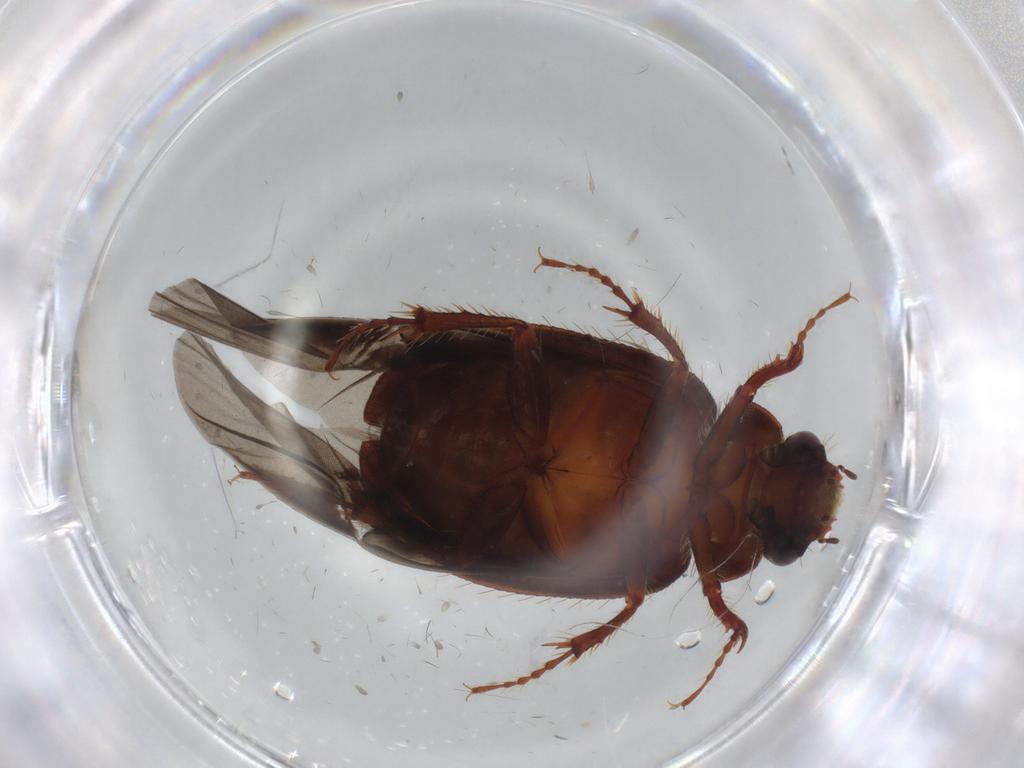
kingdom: Animalia
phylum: Arthropoda
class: Insecta
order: Coleoptera
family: Hybosoridae
